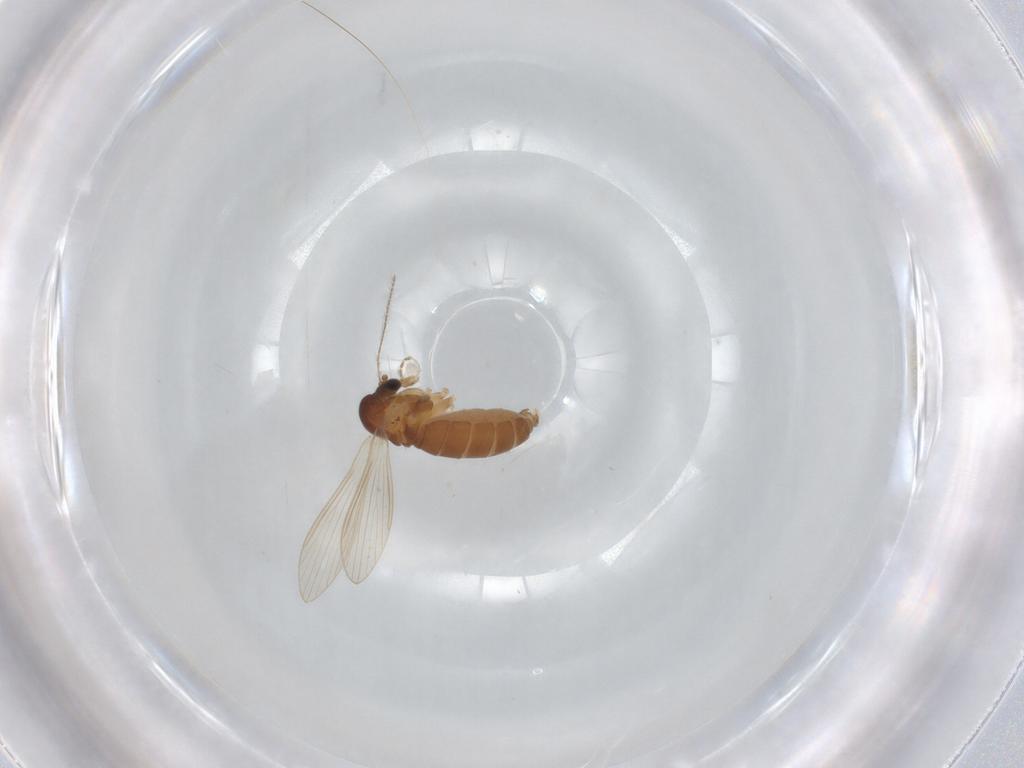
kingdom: Animalia
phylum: Arthropoda
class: Insecta
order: Diptera
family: Psychodidae
